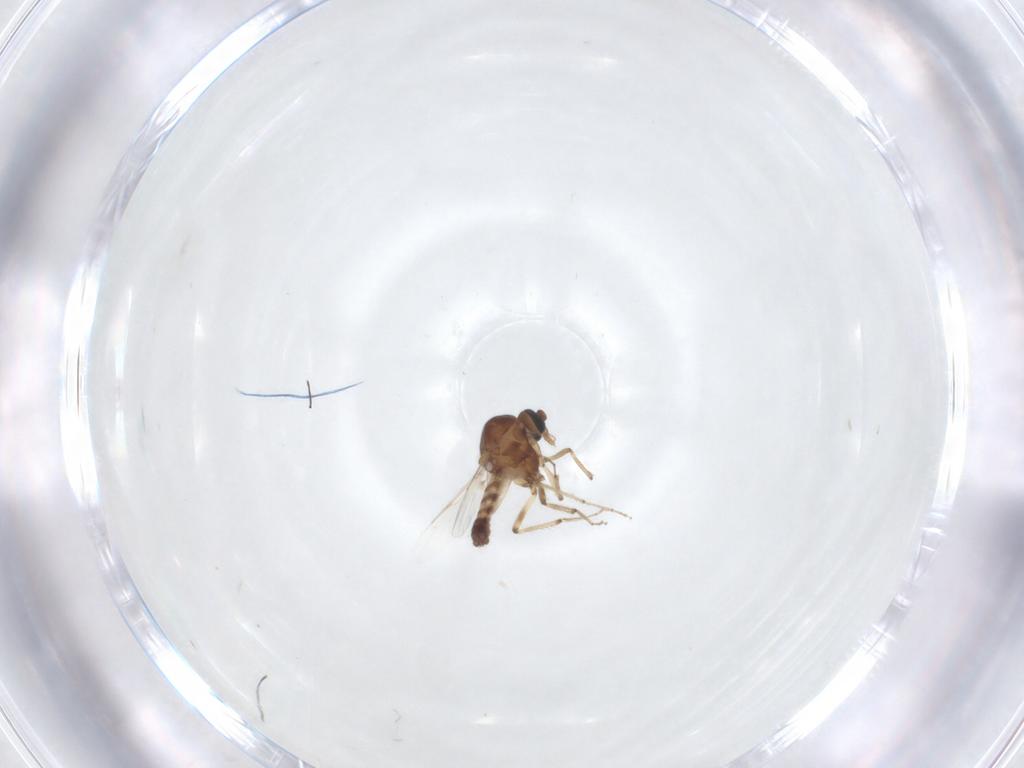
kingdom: Animalia
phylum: Arthropoda
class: Insecta
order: Diptera
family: Ceratopogonidae
